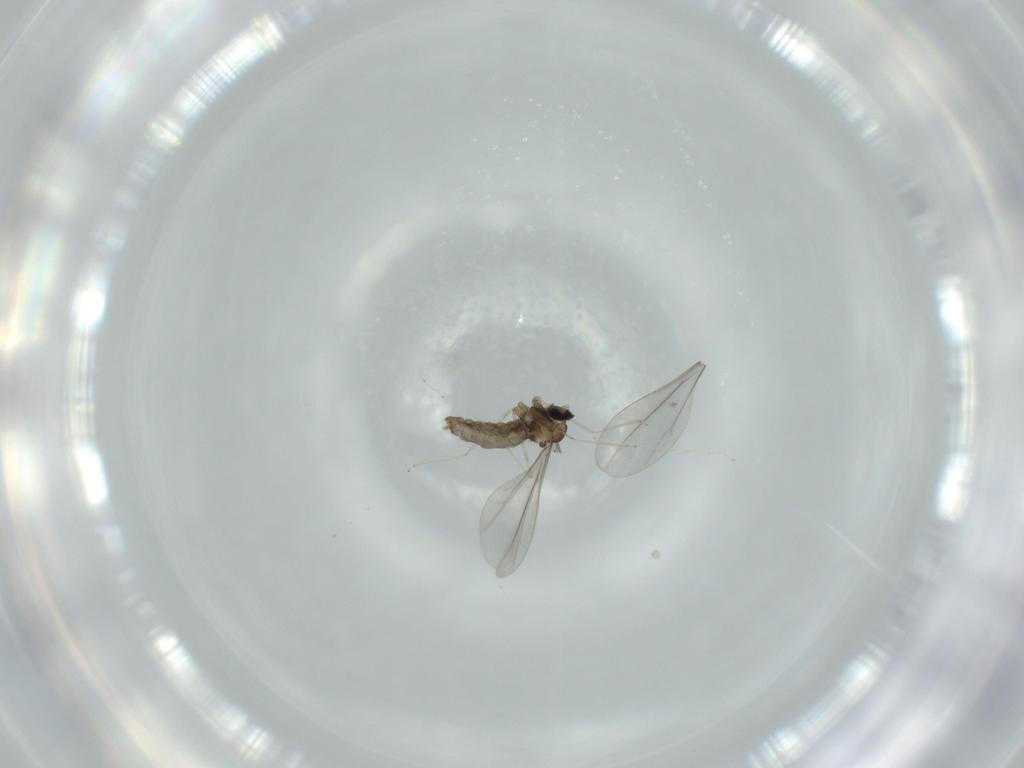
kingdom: Animalia
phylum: Arthropoda
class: Insecta
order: Diptera
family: Cecidomyiidae
